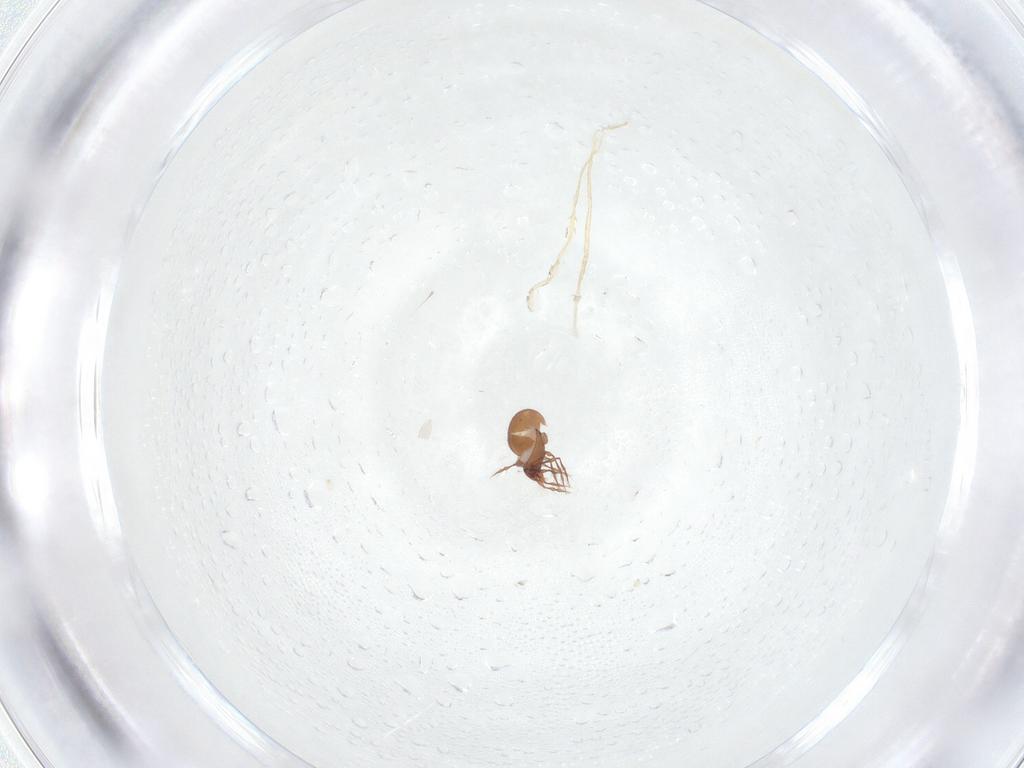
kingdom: Animalia
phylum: Arthropoda
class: Arachnida
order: Sarcoptiformes
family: Oppiidae
